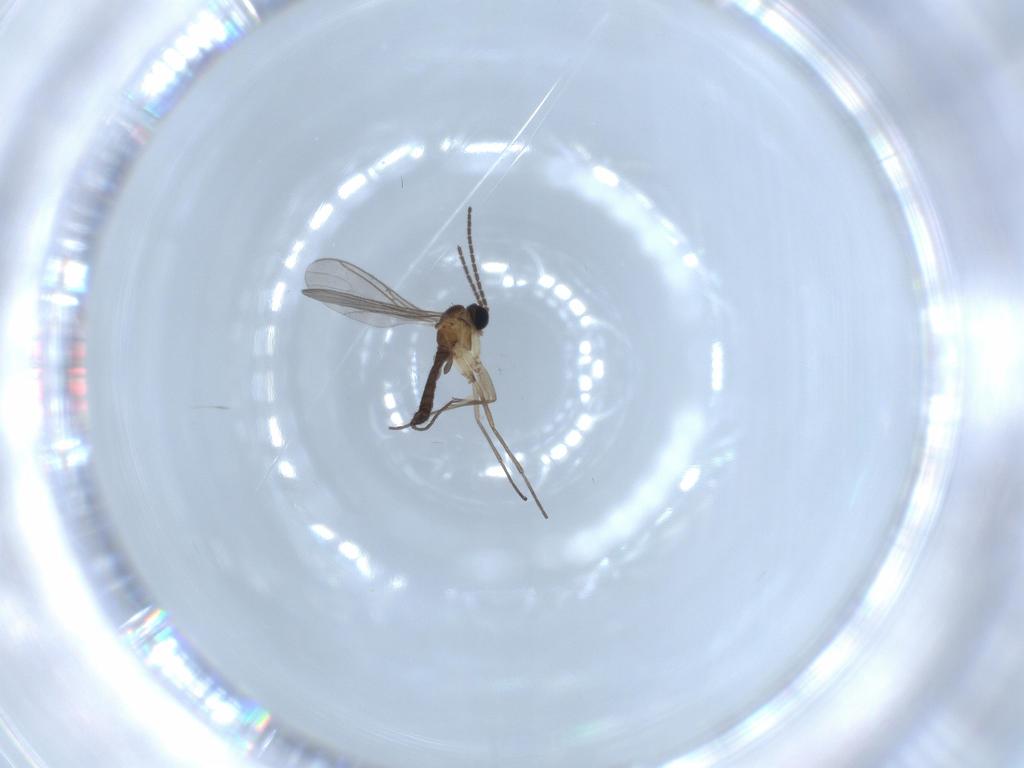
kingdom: Animalia
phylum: Arthropoda
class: Insecta
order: Diptera
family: Sciaridae
